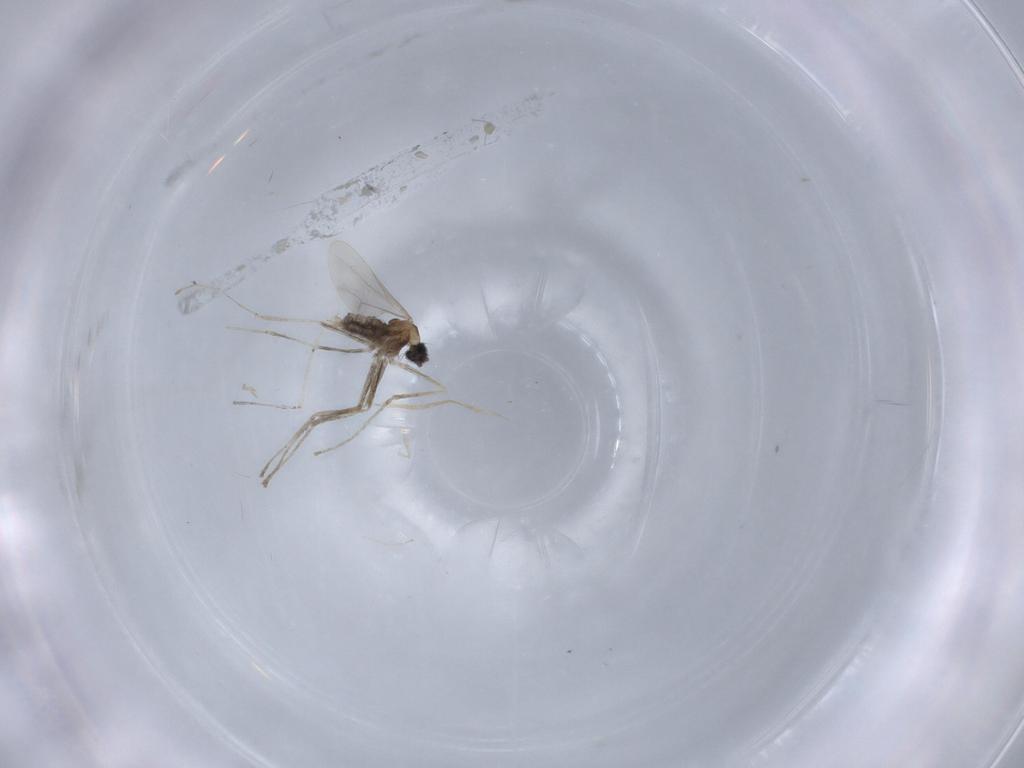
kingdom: Animalia
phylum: Arthropoda
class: Insecta
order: Diptera
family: Cecidomyiidae
